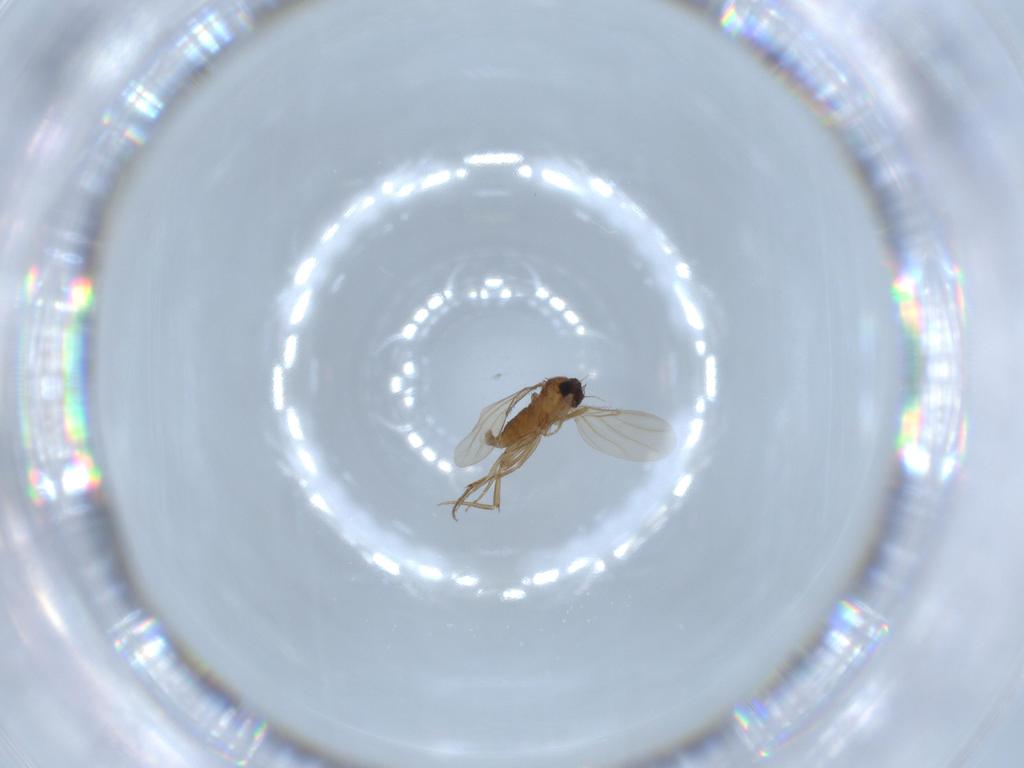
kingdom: Animalia
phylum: Arthropoda
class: Insecta
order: Diptera
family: Phoridae
